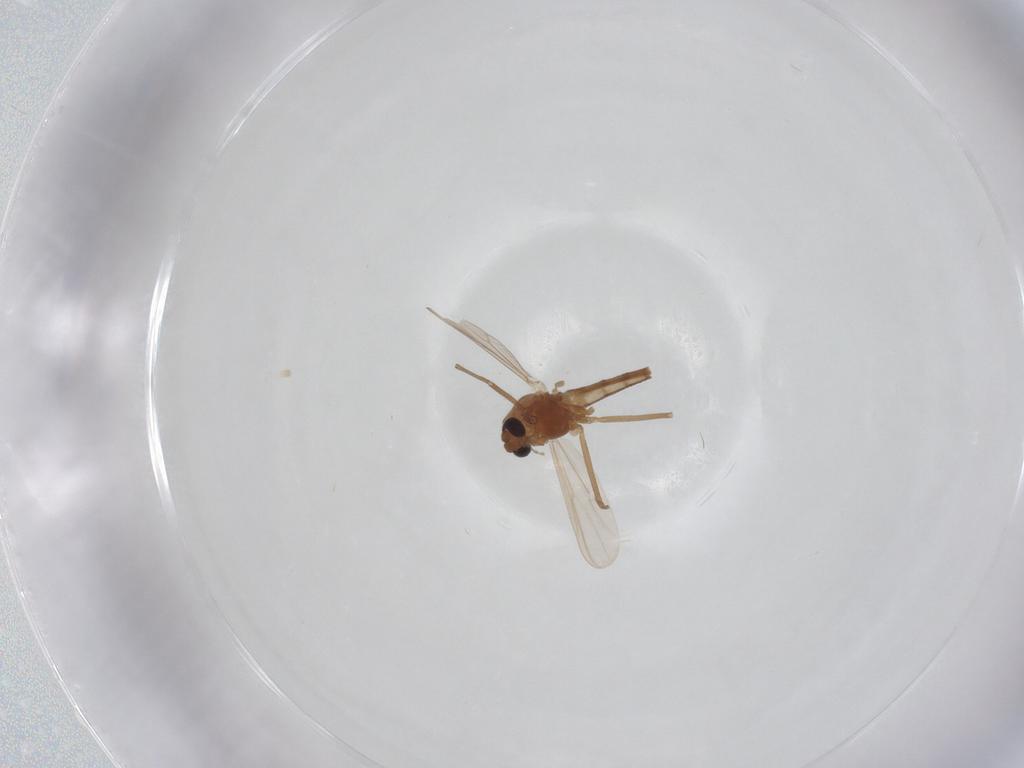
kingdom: Animalia
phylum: Arthropoda
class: Insecta
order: Diptera
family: Chironomidae
